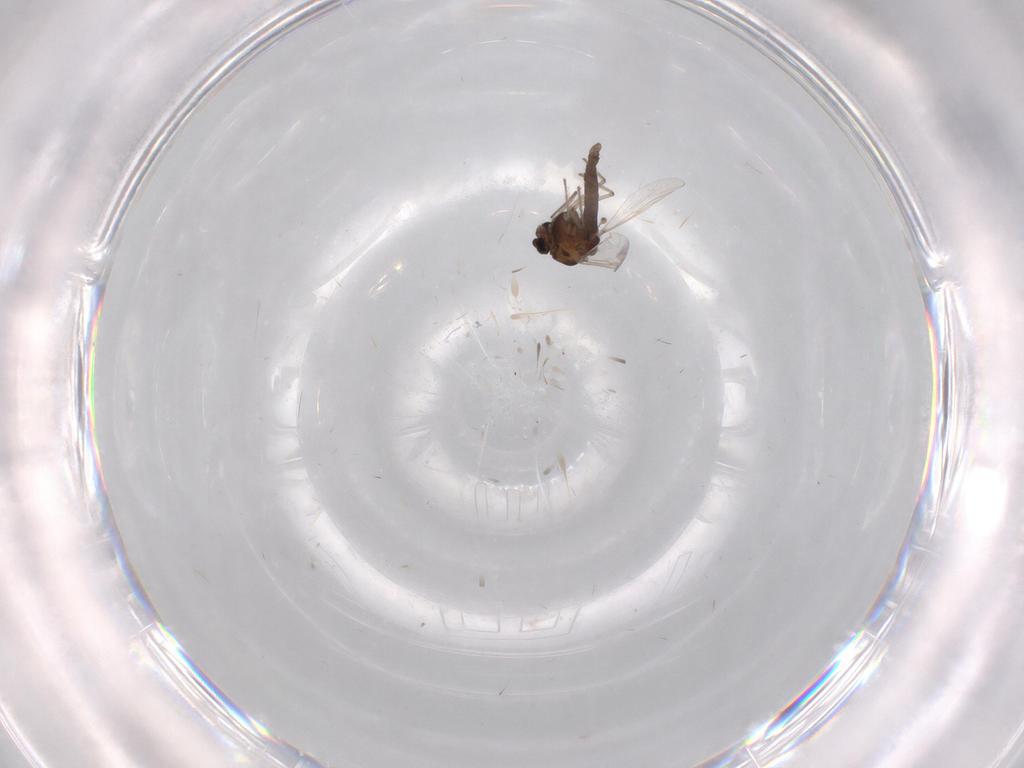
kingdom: Animalia
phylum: Arthropoda
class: Insecta
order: Diptera
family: Chironomidae
